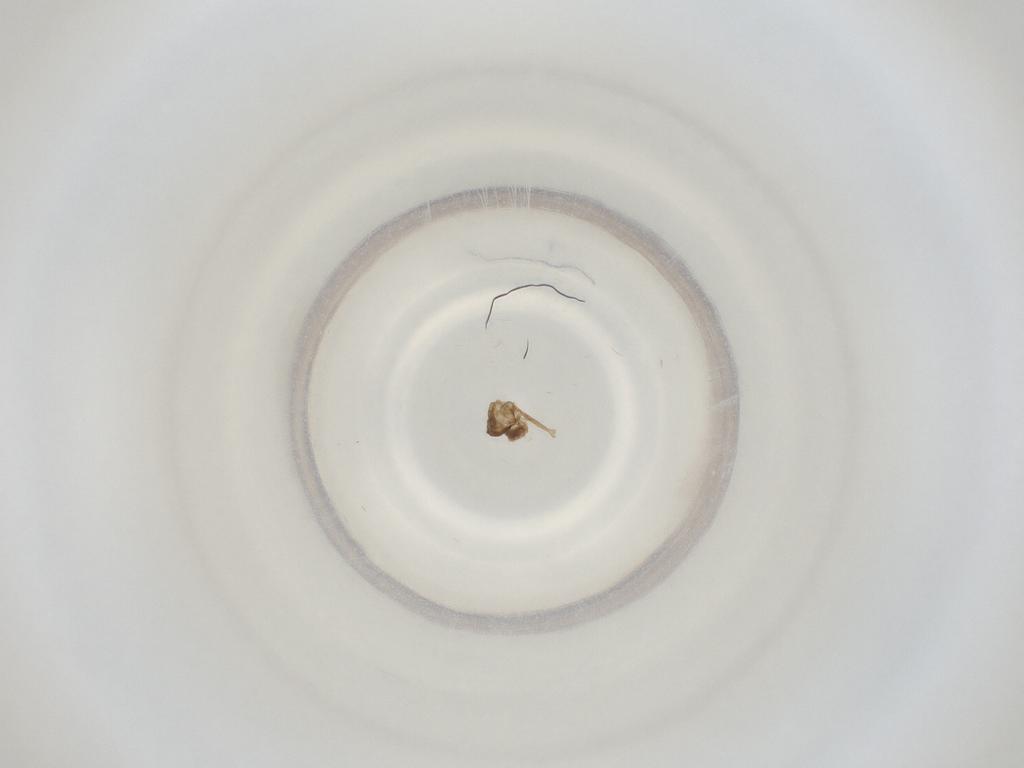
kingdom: Animalia
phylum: Arthropoda
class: Insecta
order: Diptera
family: Cecidomyiidae
